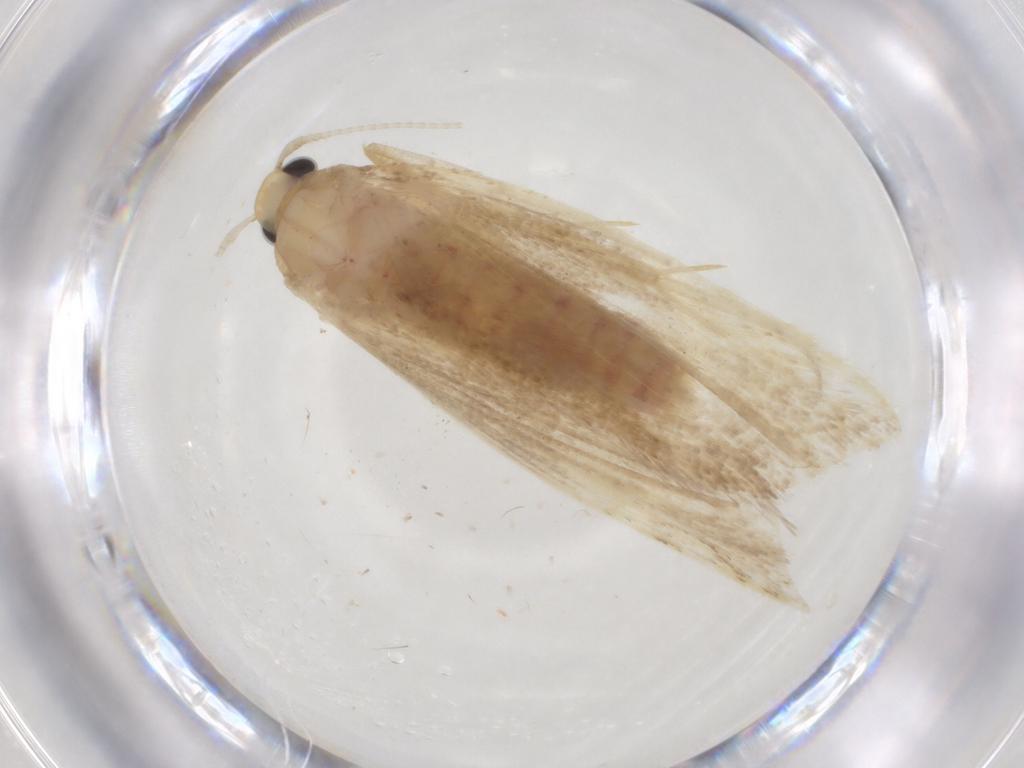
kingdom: Animalia
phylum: Arthropoda
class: Insecta
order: Lepidoptera
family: Lecithoceridae
